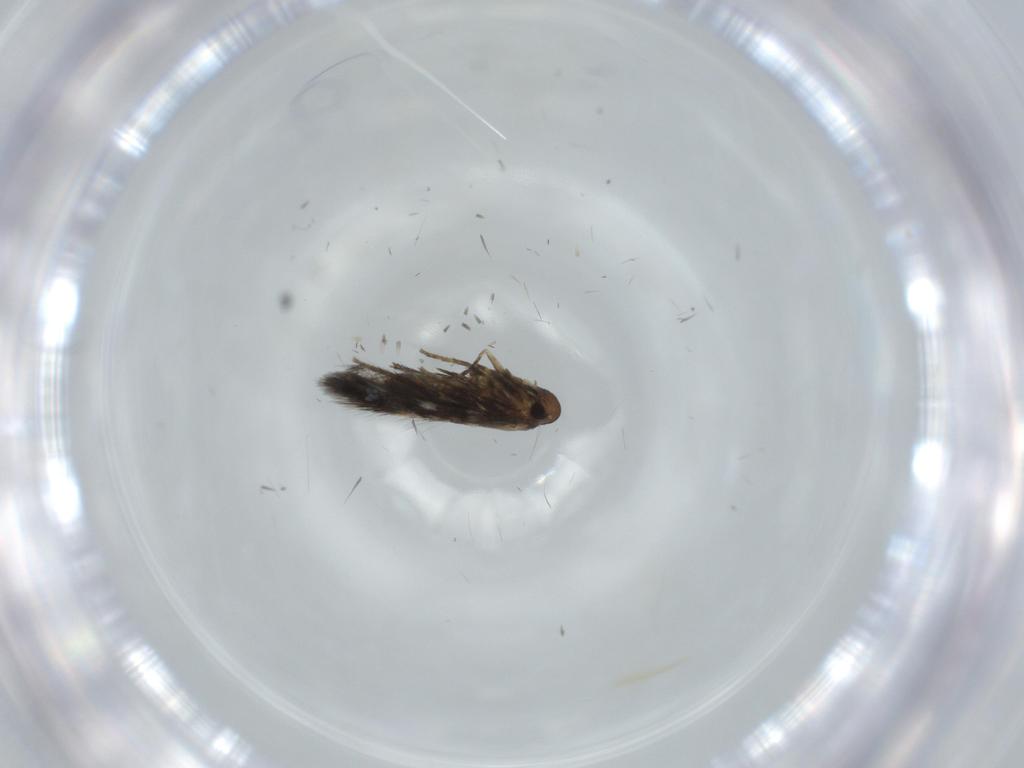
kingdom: Animalia
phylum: Arthropoda
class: Insecta
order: Lepidoptera
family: Heliozelidae
